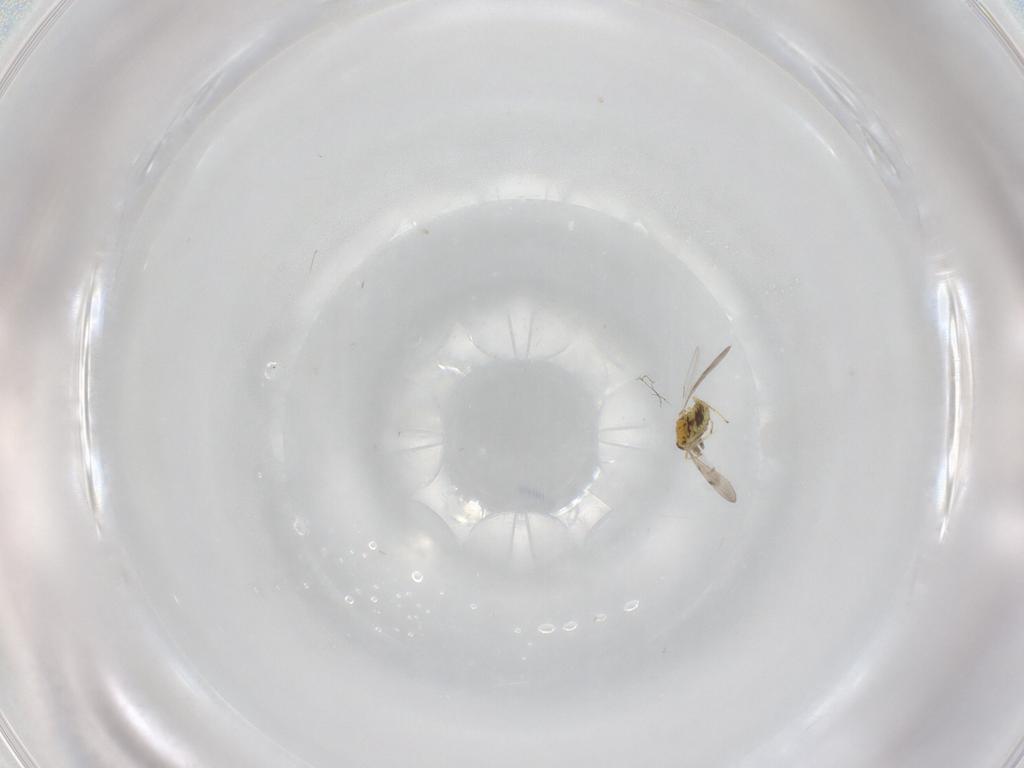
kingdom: Animalia
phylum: Arthropoda
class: Insecta
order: Hymenoptera
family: Eulophidae
